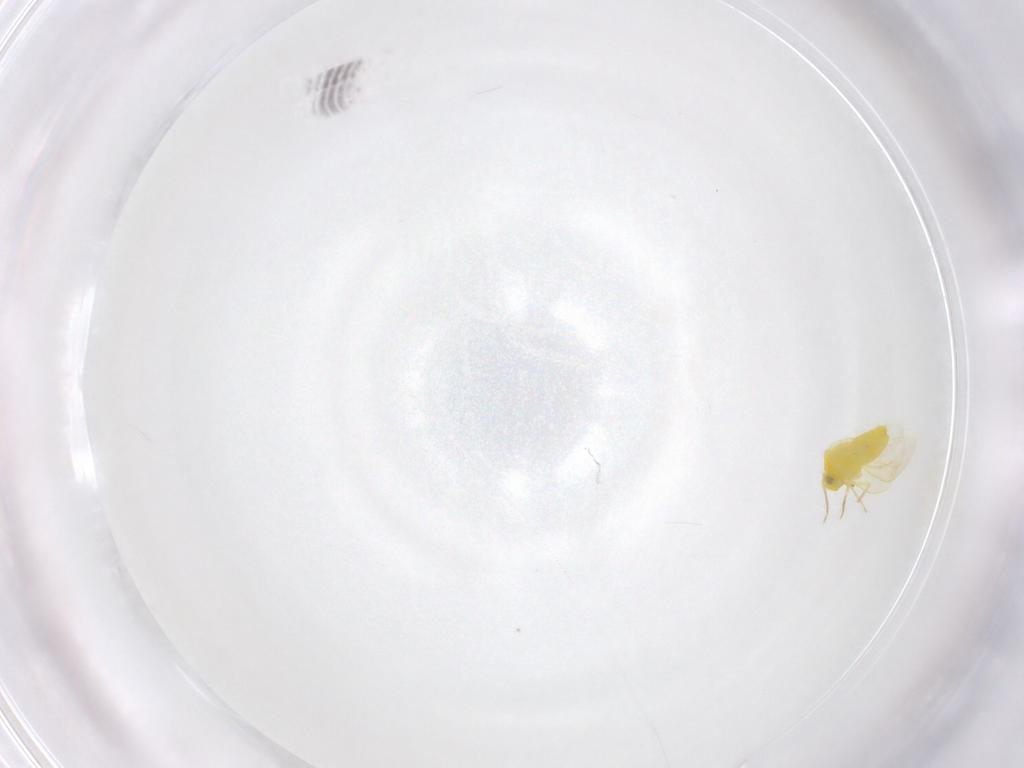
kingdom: Animalia
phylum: Arthropoda
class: Insecta
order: Hemiptera
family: Aleyrodidae
